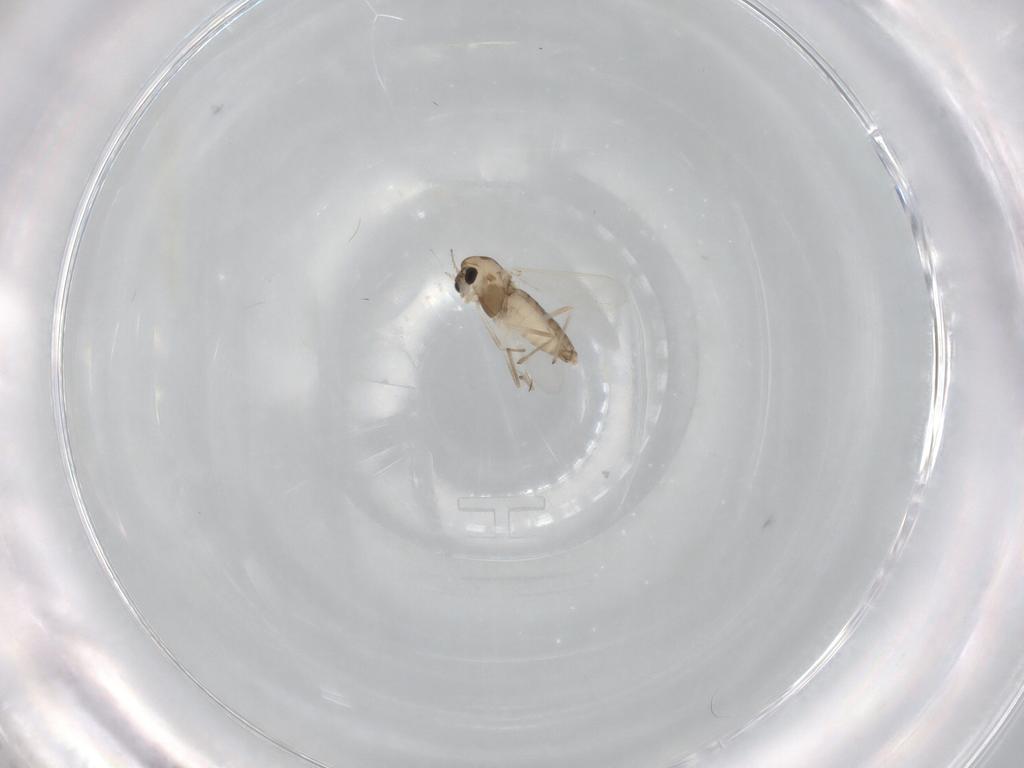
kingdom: Animalia
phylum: Arthropoda
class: Insecta
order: Diptera
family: Chironomidae
